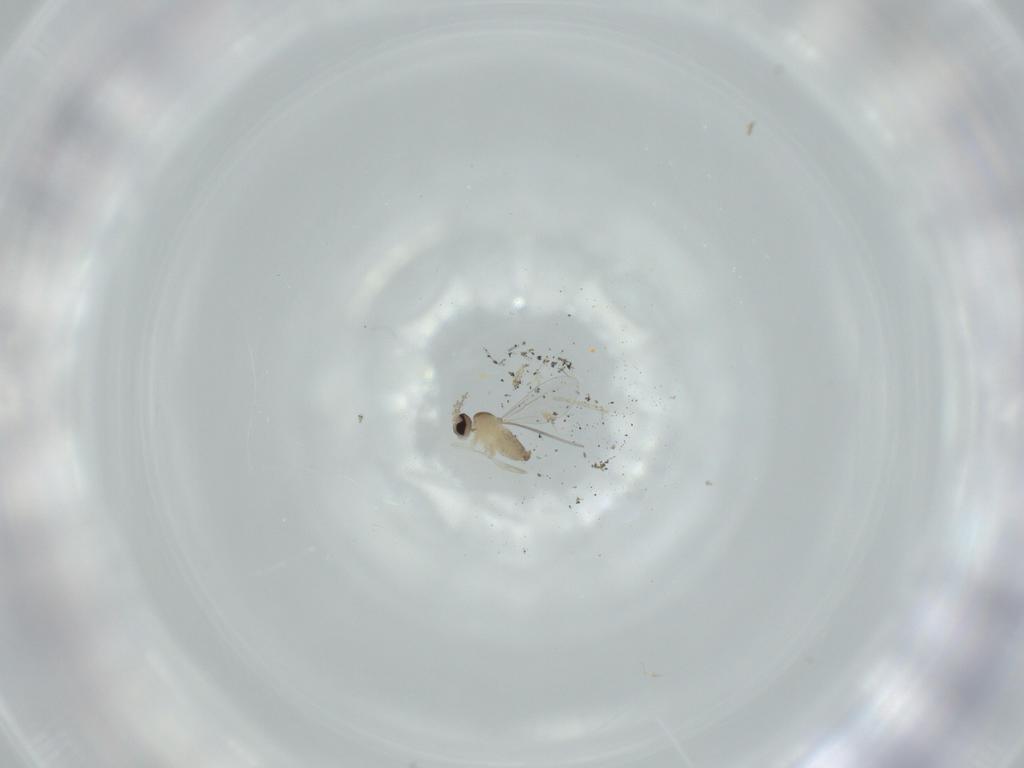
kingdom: Animalia
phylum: Arthropoda
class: Insecta
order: Diptera
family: Cecidomyiidae
